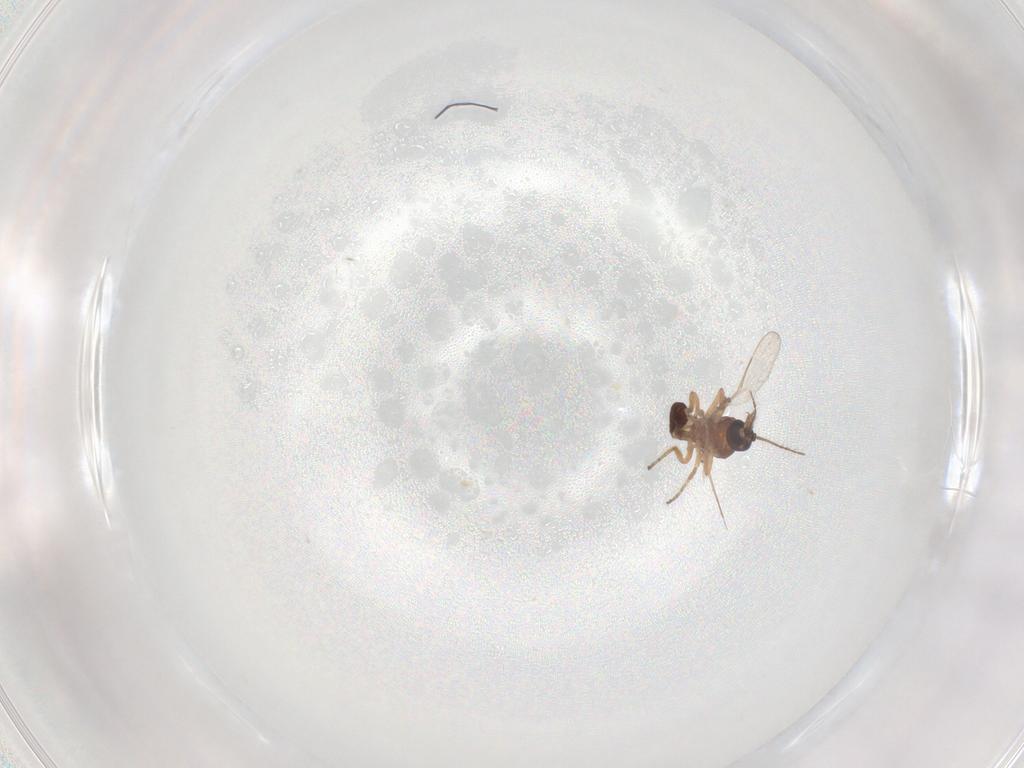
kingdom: Animalia
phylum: Arthropoda
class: Insecta
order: Diptera
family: Ceratopogonidae
